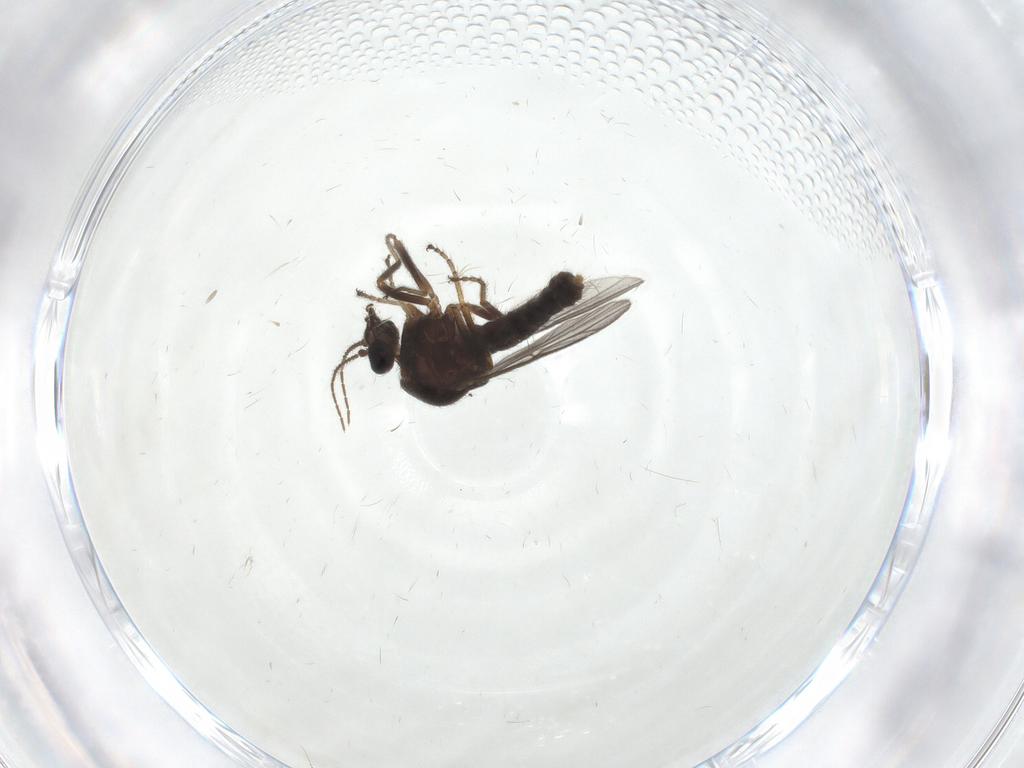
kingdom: Animalia
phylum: Arthropoda
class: Insecta
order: Diptera
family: Ceratopogonidae
